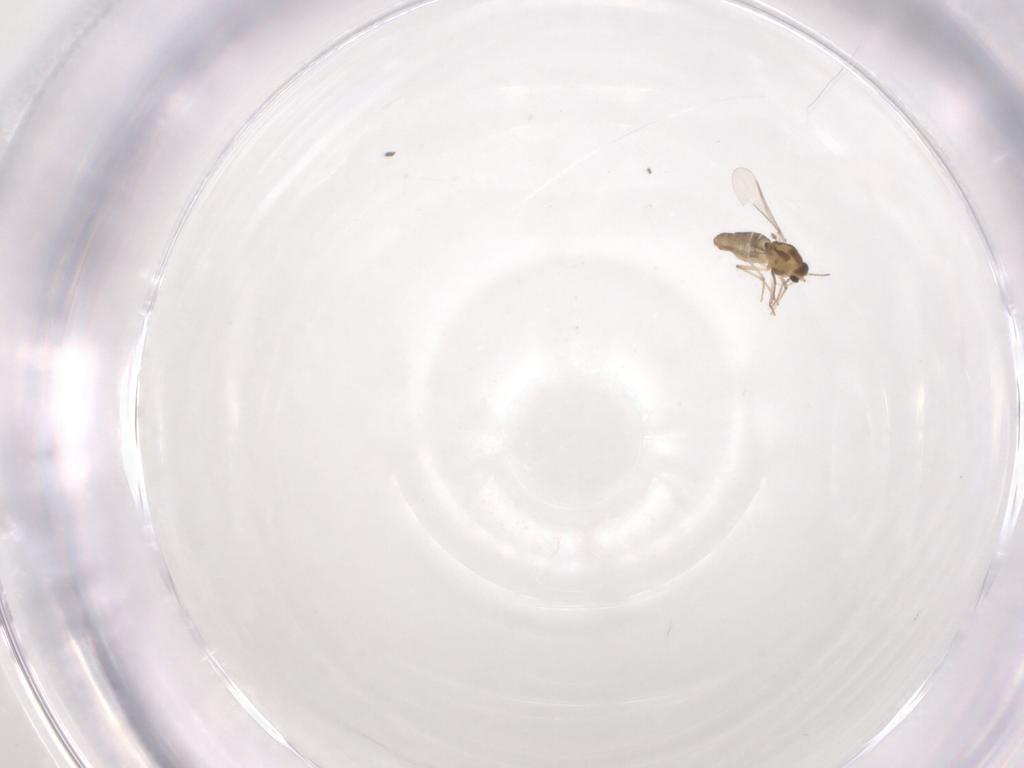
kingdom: Animalia
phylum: Arthropoda
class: Insecta
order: Diptera
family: Chironomidae
